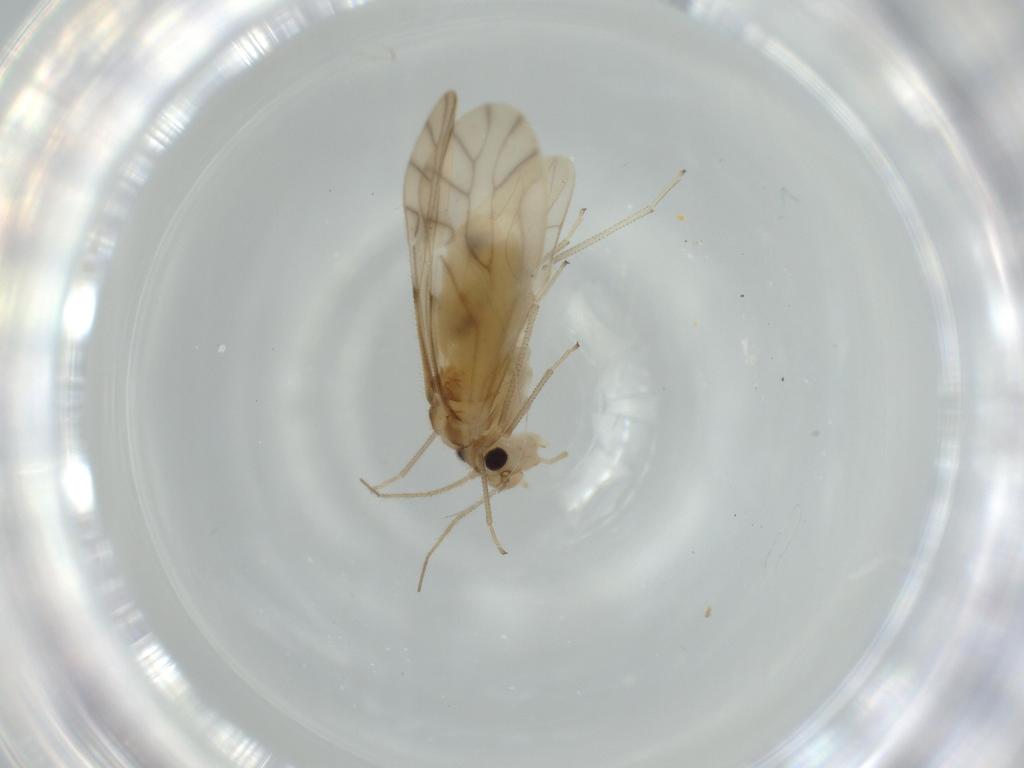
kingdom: Animalia
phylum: Arthropoda
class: Insecta
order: Psocodea
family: Caeciliusidae
